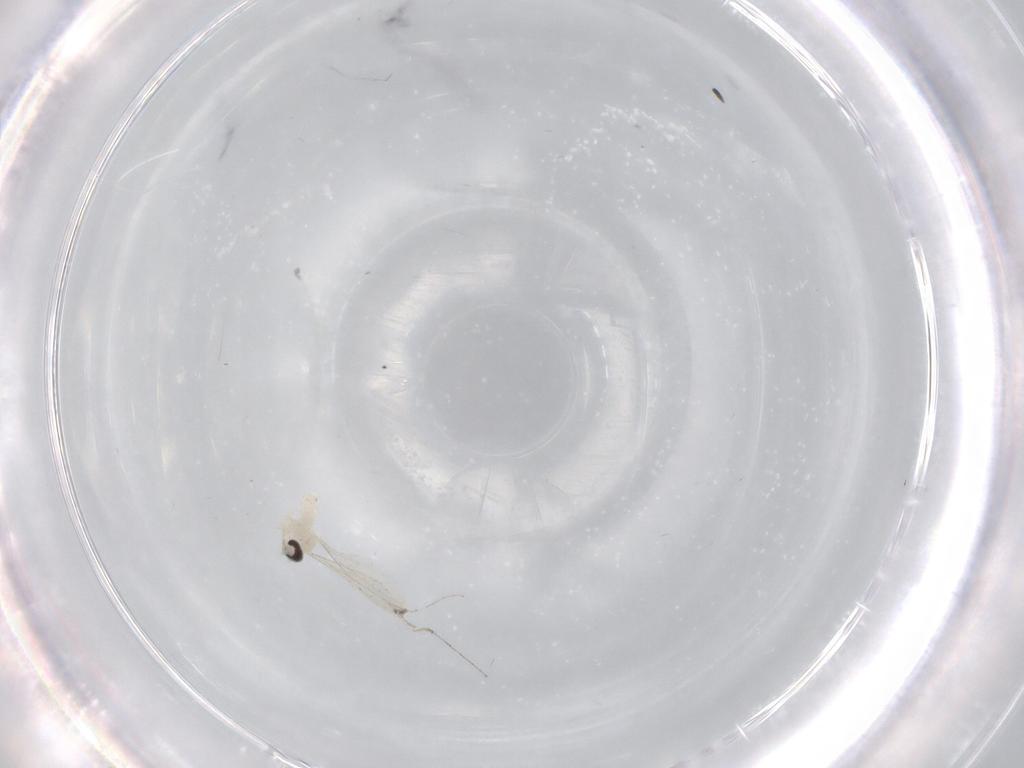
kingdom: Animalia
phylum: Arthropoda
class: Insecta
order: Diptera
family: Cecidomyiidae
